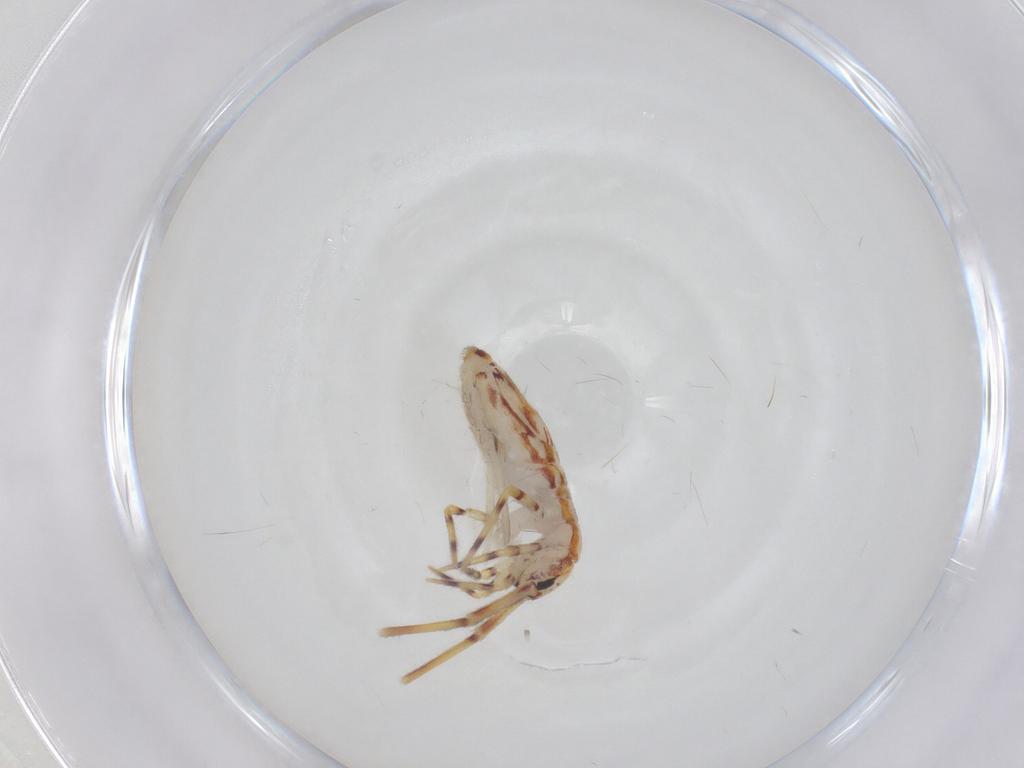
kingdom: Animalia
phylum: Arthropoda
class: Collembola
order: Entomobryomorpha
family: Entomobryidae
